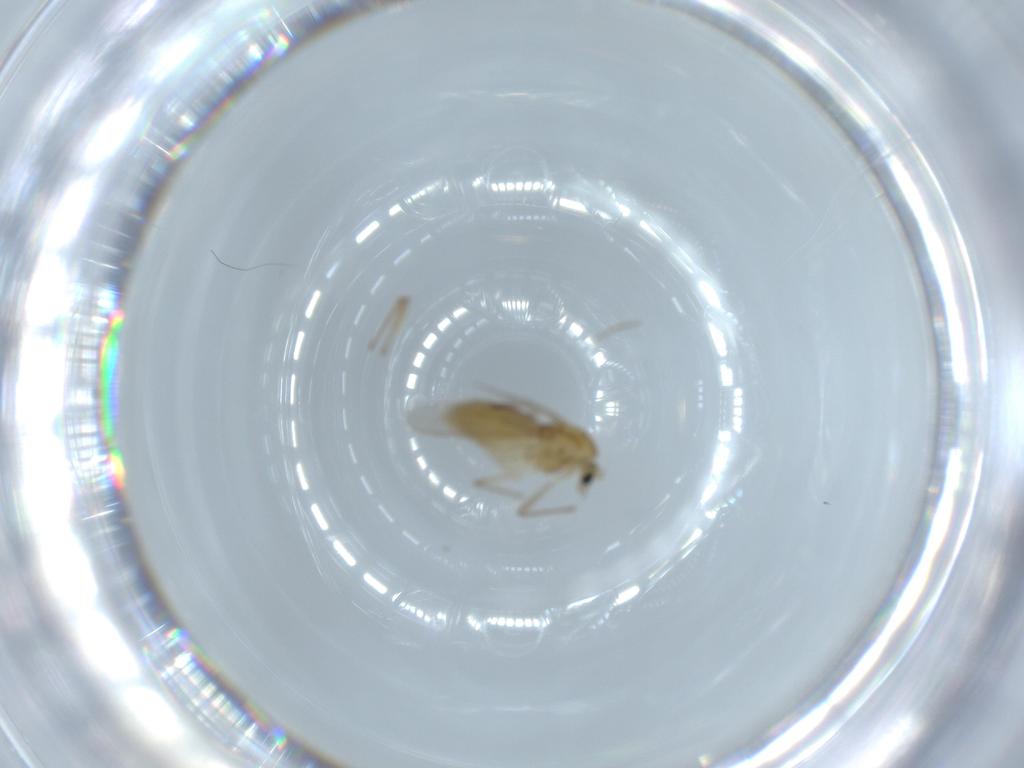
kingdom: Animalia
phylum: Arthropoda
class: Insecta
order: Diptera
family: Chironomidae
